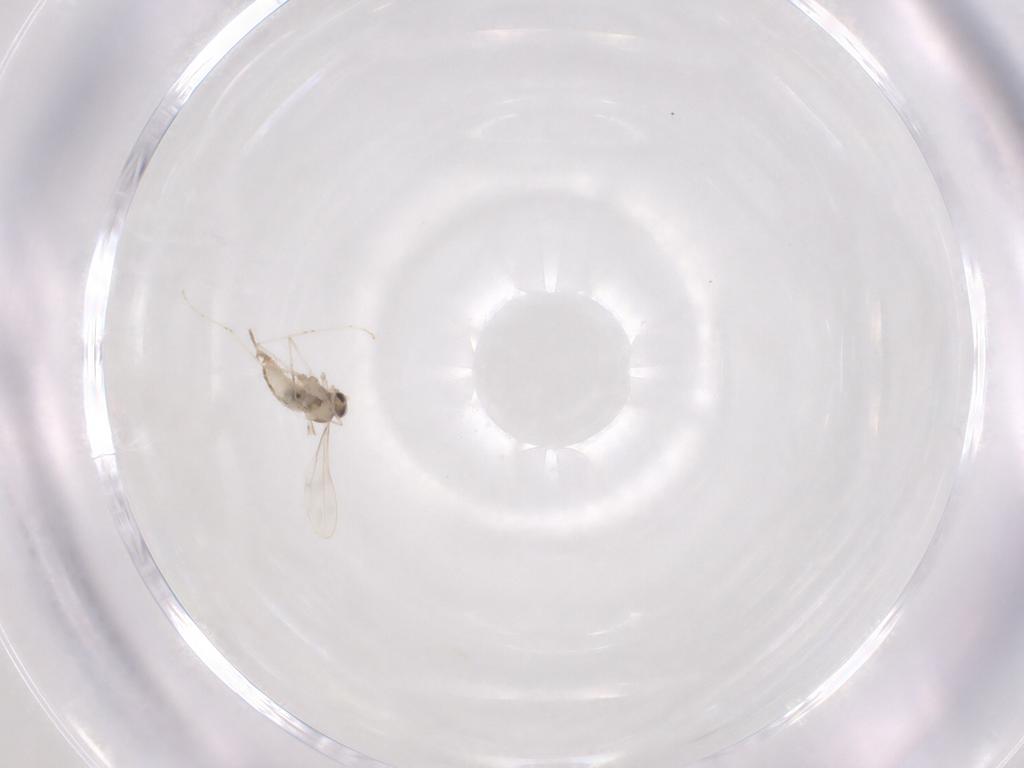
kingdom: Animalia
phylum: Arthropoda
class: Insecta
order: Diptera
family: Cecidomyiidae
